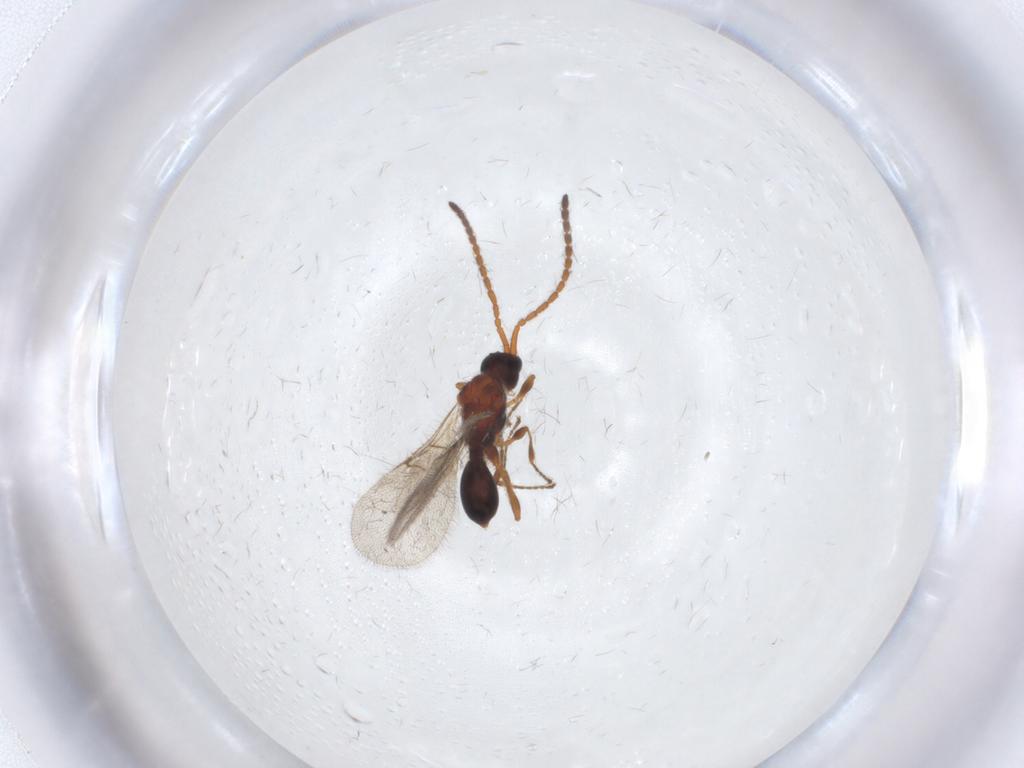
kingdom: Animalia
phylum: Arthropoda
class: Insecta
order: Hymenoptera
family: Diapriidae
